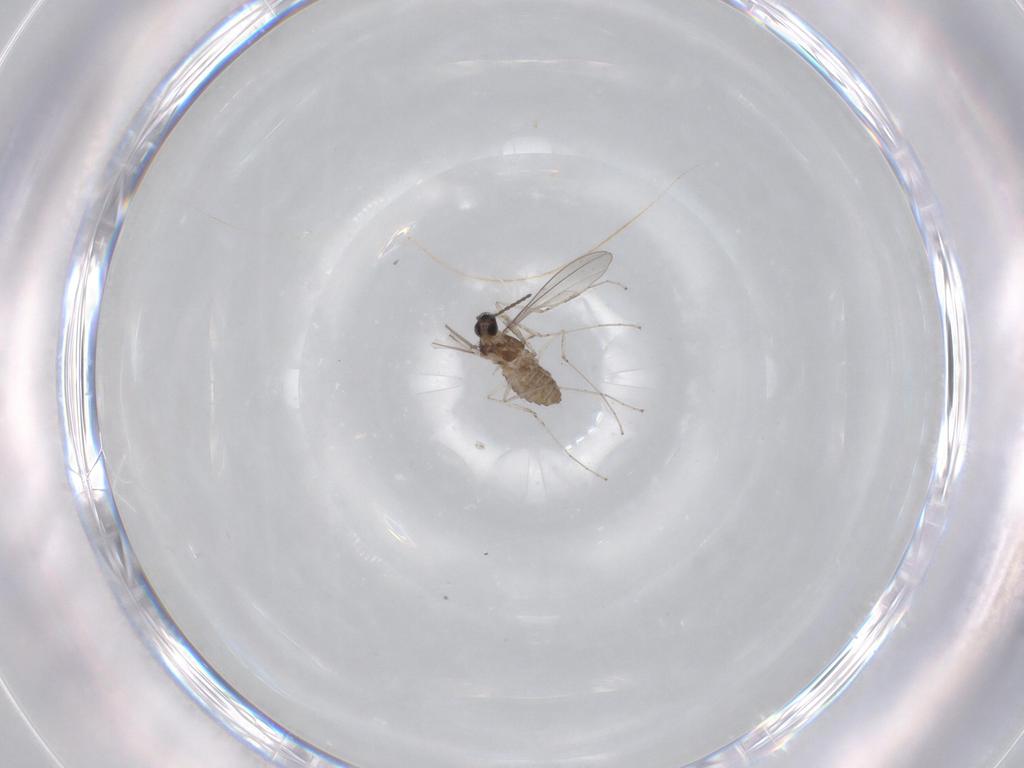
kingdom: Animalia
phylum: Arthropoda
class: Insecta
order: Diptera
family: Cecidomyiidae
